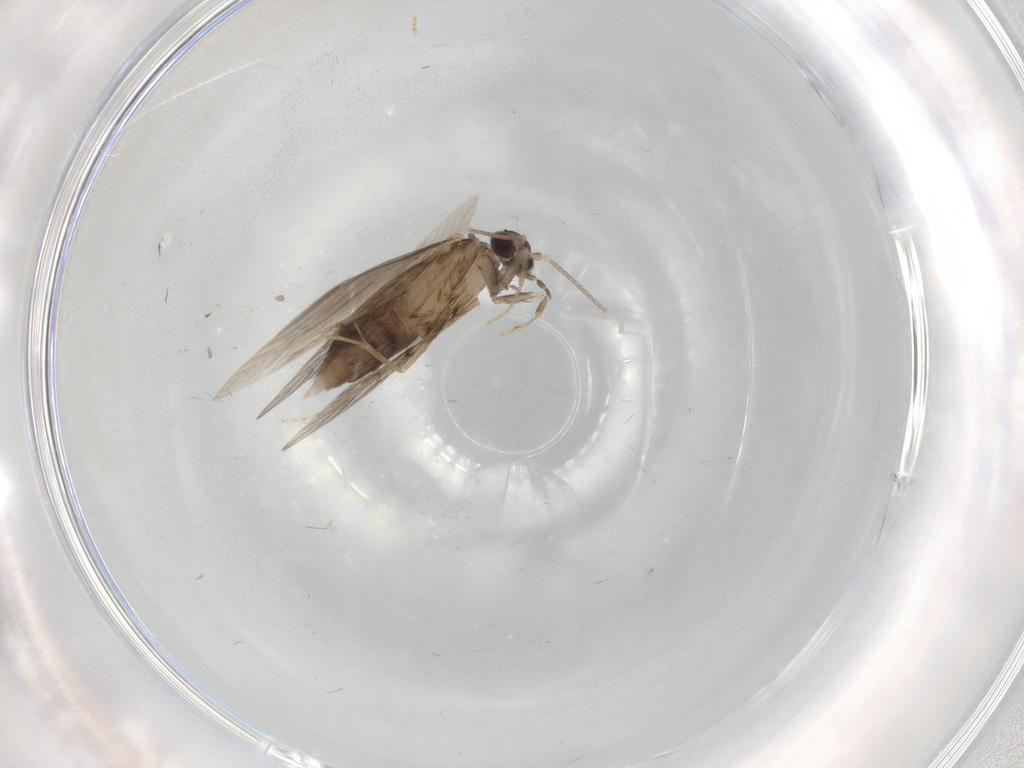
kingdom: Animalia
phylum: Arthropoda
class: Insecta
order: Trichoptera
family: Hydroptilidae
